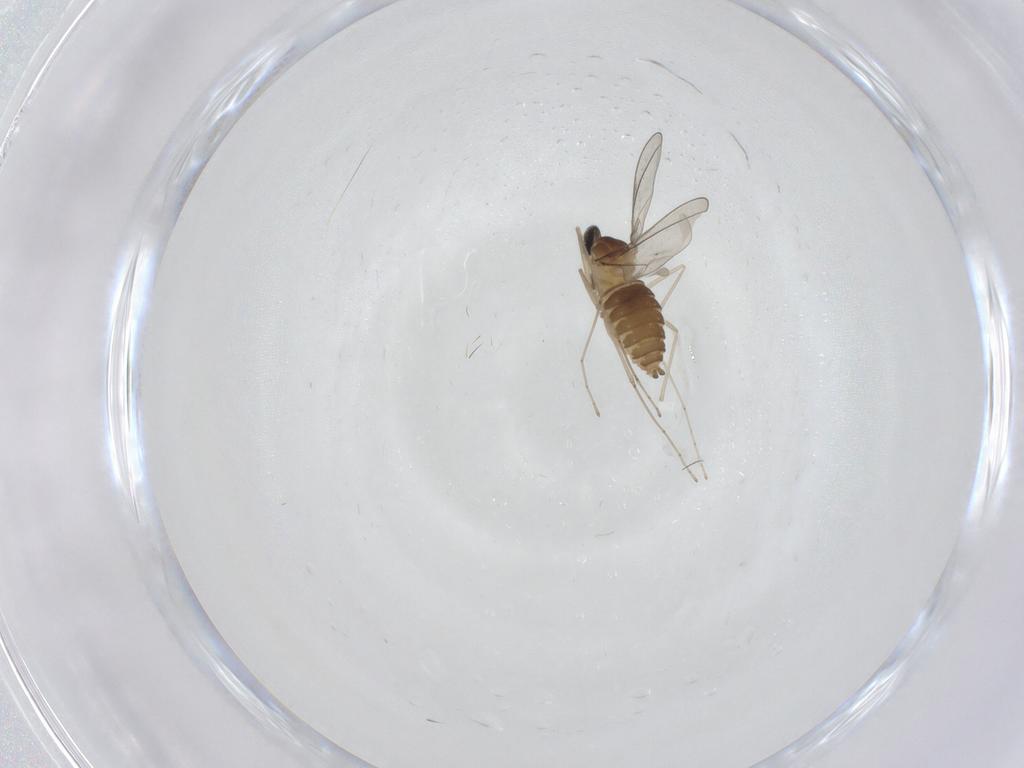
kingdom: Animalia
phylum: Arthropoda
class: Insecta
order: Diptera
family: Cecidomyiidae
